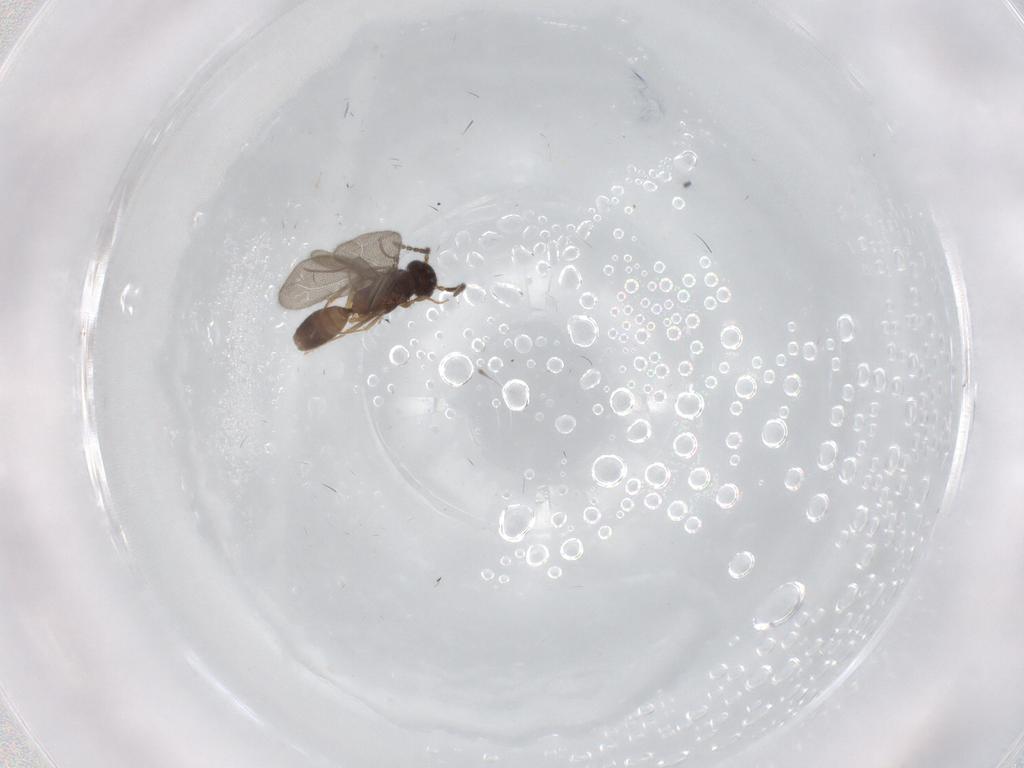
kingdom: Animalia
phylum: Arthropoda
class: Insecta
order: Hymenoptera
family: Bethylidae
